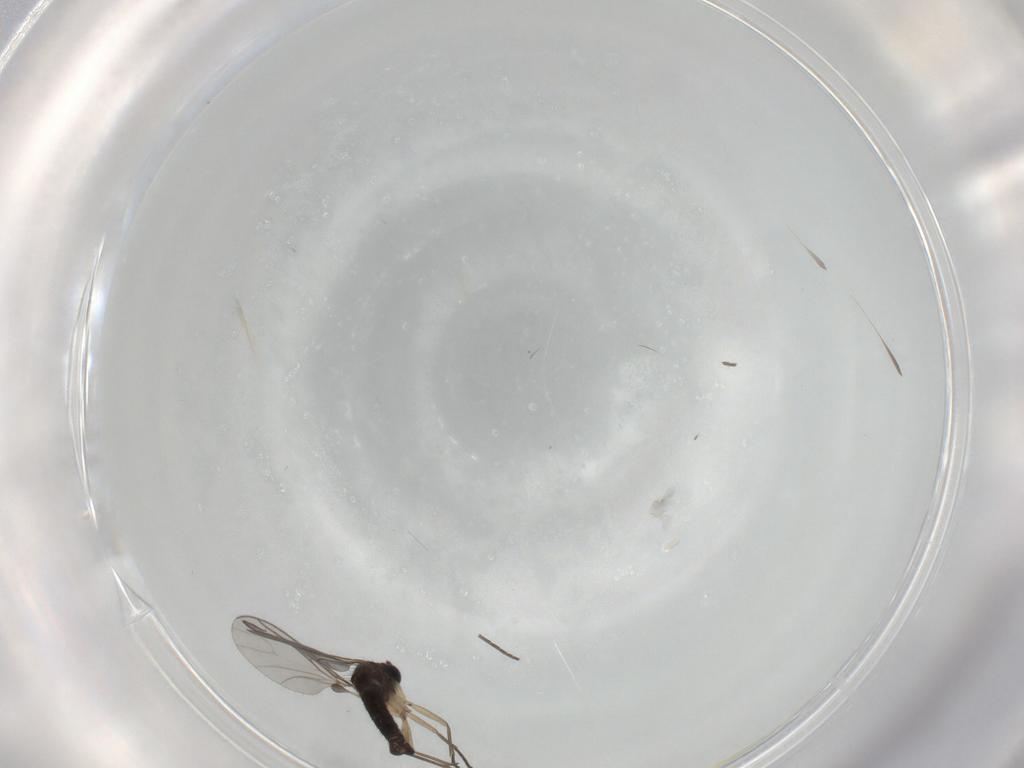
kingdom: Animalia
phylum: Arthropoda
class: Insecta
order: Diptera
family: Sciaridae
